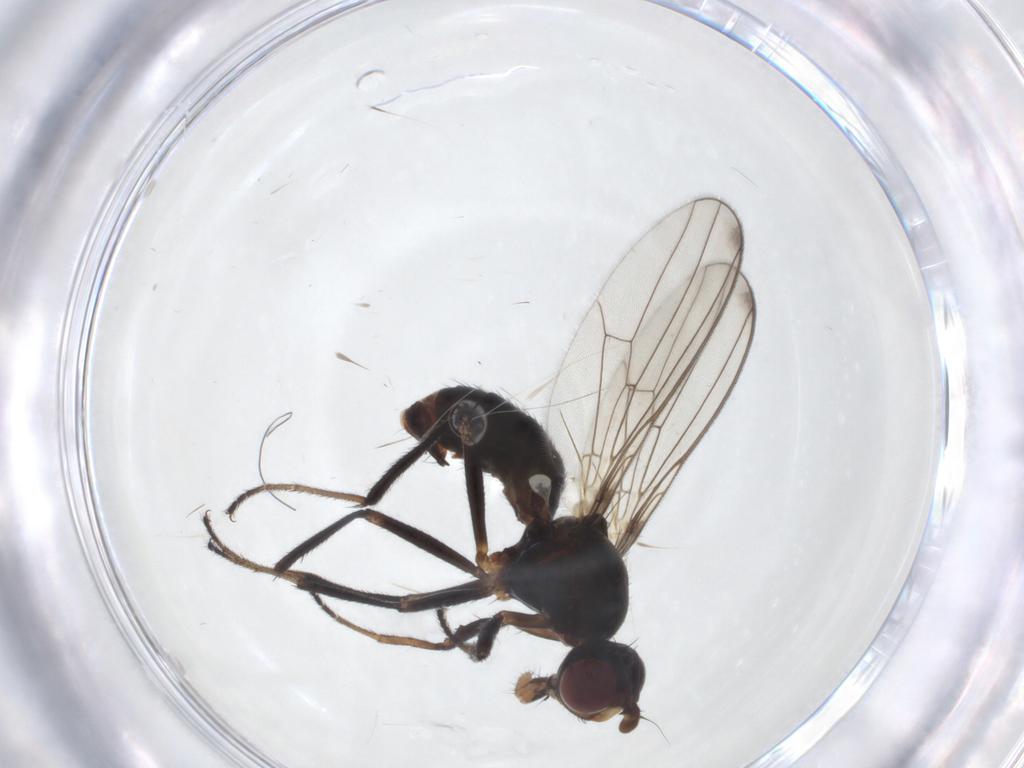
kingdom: Animalia
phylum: Arthropoda
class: Insecta
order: Diptera
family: Sepsidae
